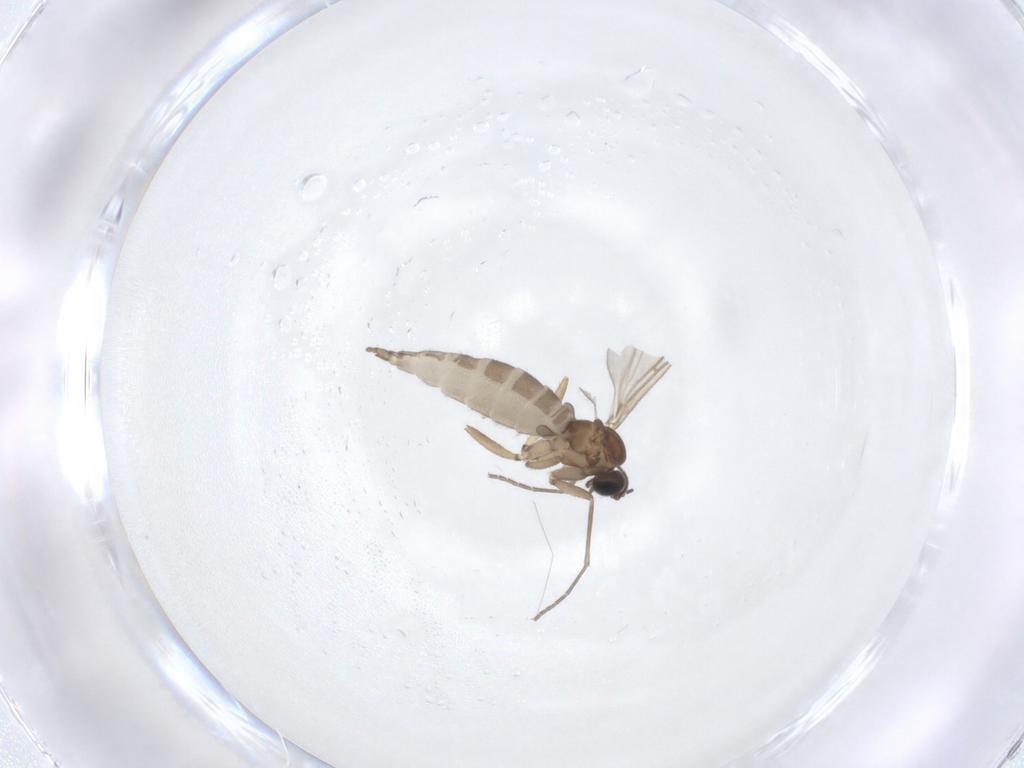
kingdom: Animalia
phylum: Arthropoda
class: Insecta
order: Diptera
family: Sciaridae
